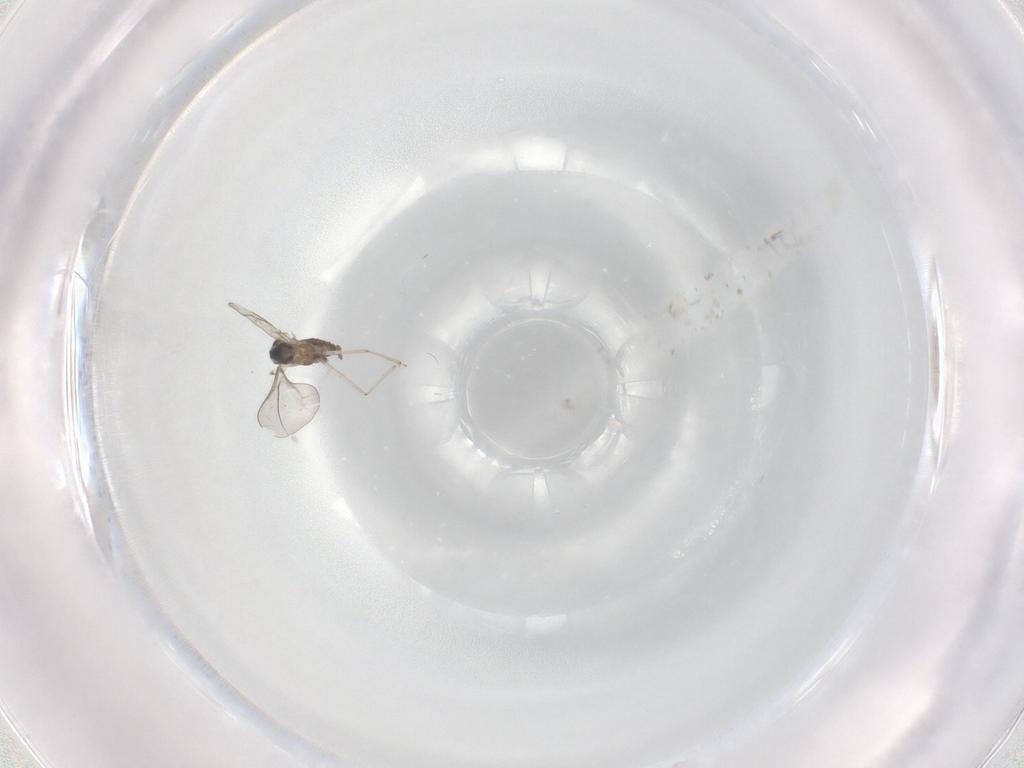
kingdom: Animalia
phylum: Arthropoda
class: Insecta
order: Diptera
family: Cecidomyiidae
